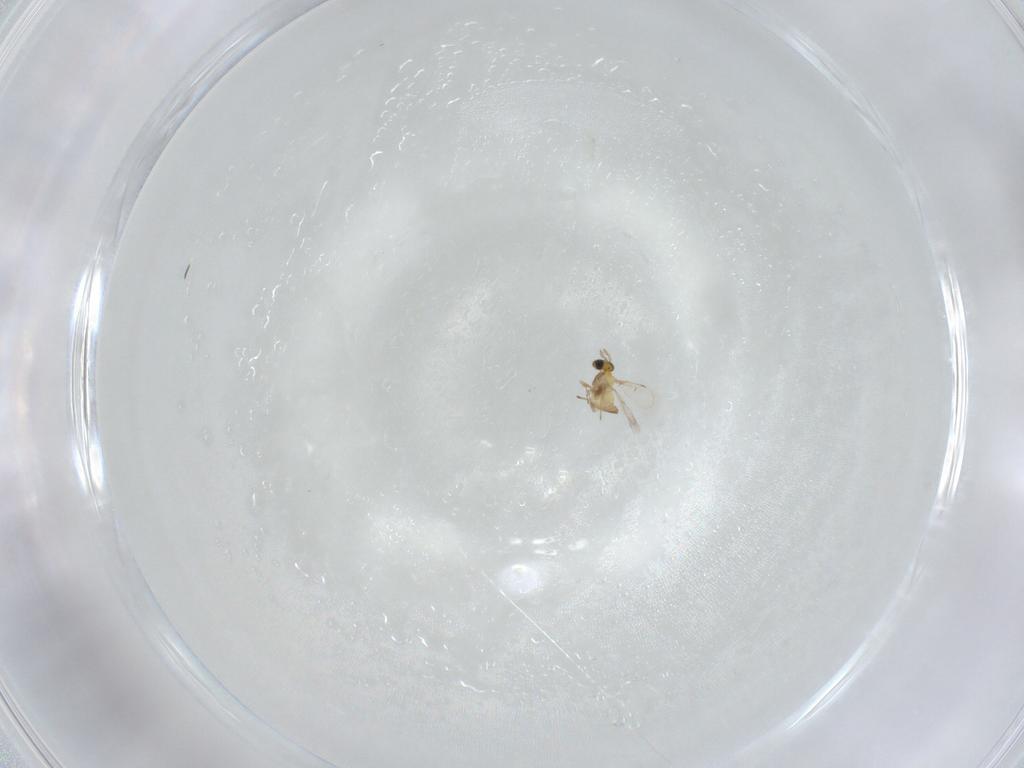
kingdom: Animalia
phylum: Arthropoda
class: Insecta
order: Hymenoptera
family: Trichogrammatidae
